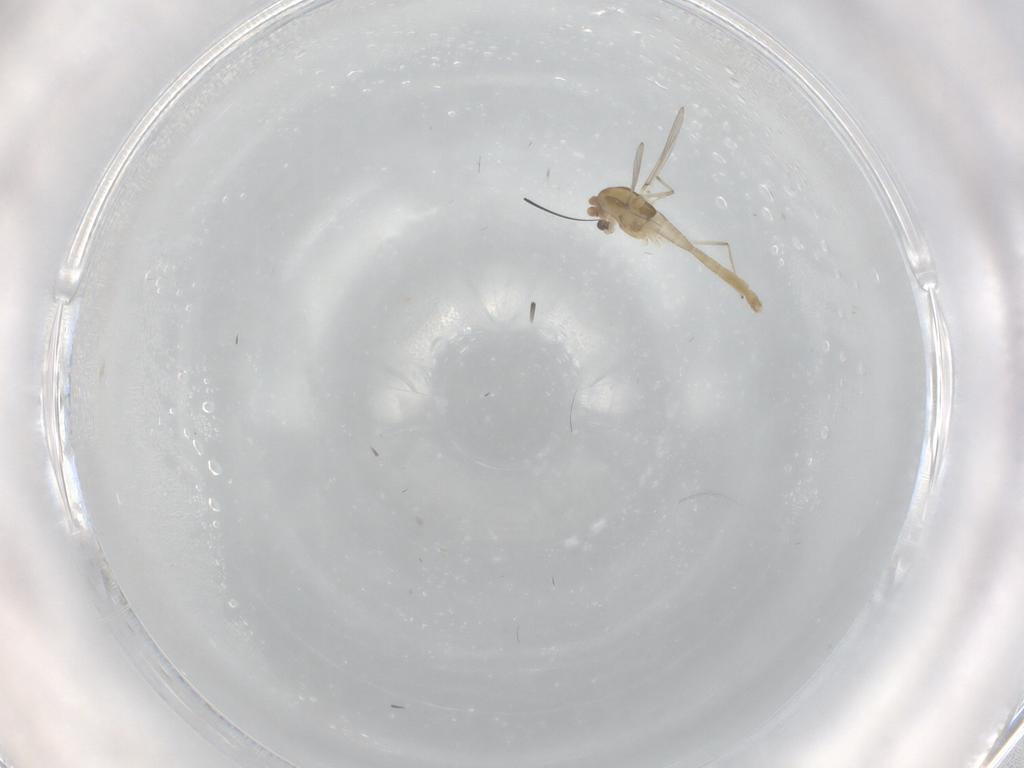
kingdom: Animalia
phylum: Arthropoda
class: Insecta
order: Diptera
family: Chironomidae
